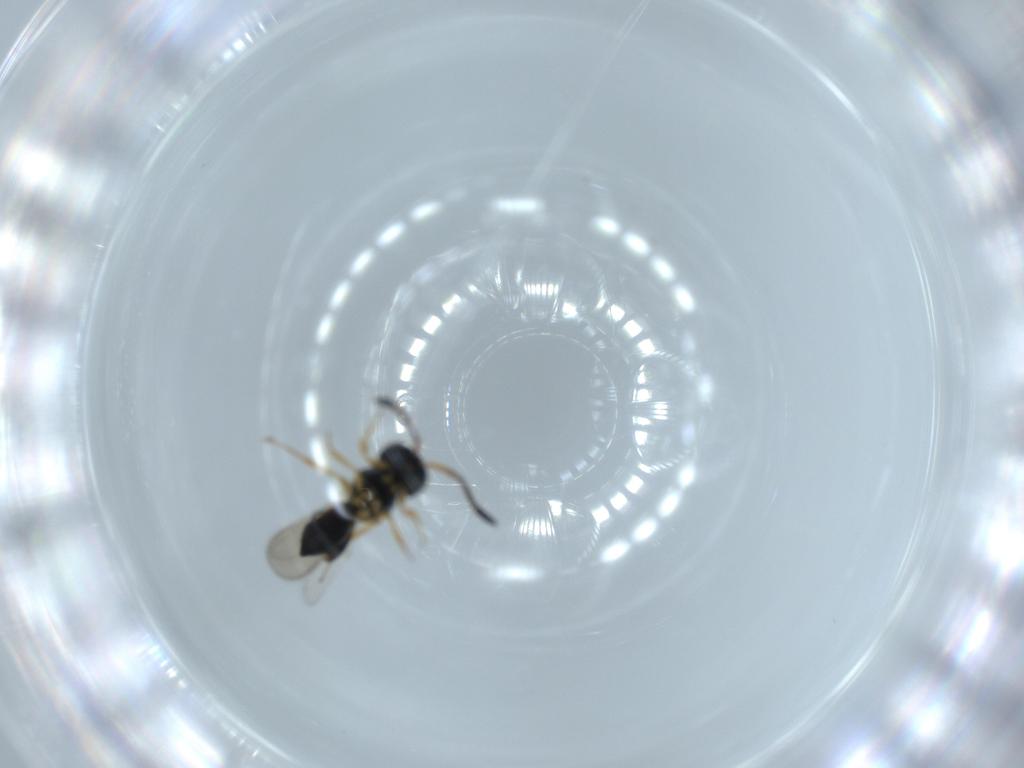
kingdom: Animalia
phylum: Arthropoda
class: Insecta
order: Hymenoptera
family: Scelionidae
